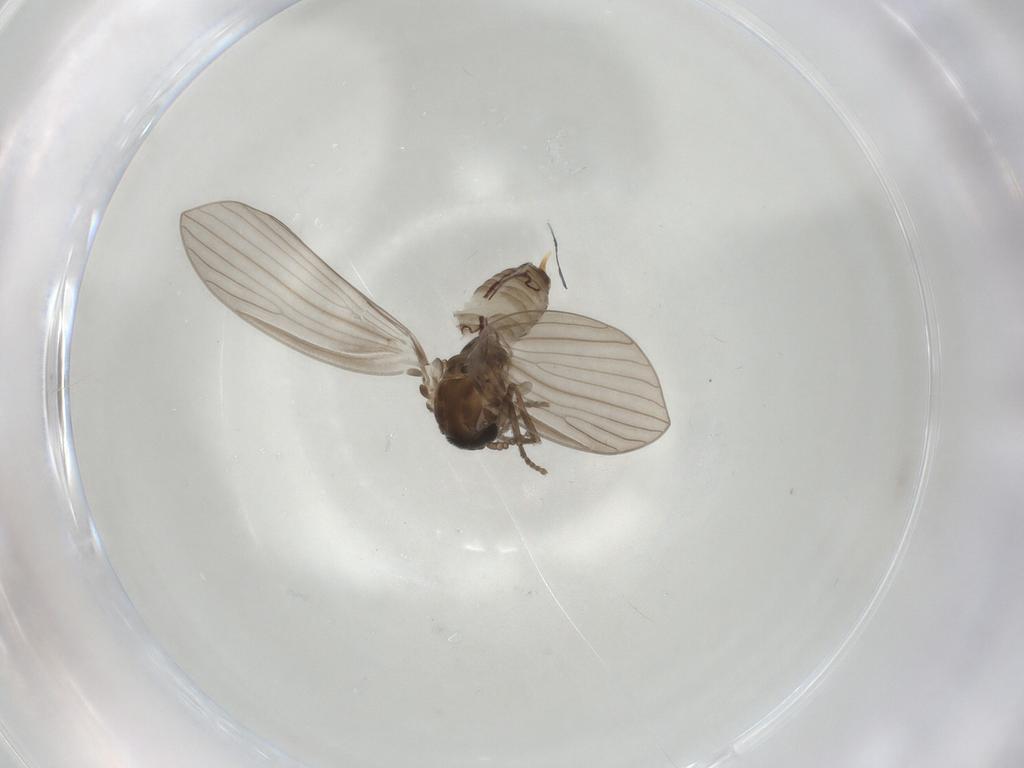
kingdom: Animalia
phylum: Arthropoda
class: Insecta
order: Diptera
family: Psychodidae
